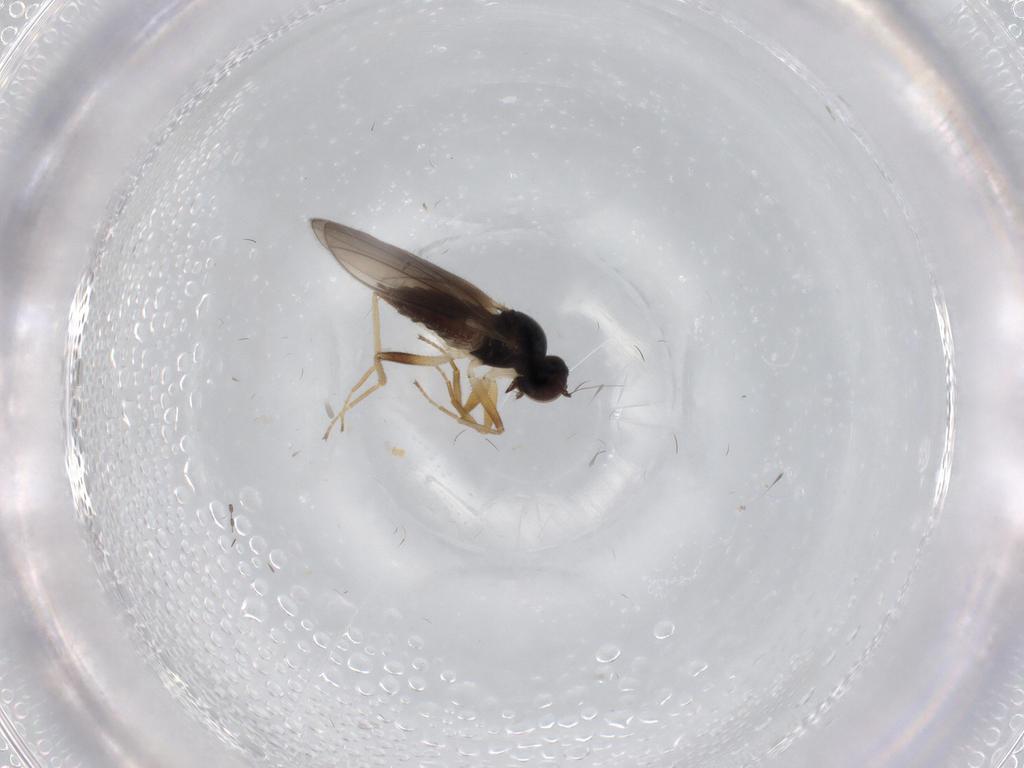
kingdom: Animalia
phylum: Arthropoda
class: Insecta
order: Diptera
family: Hybotidae
